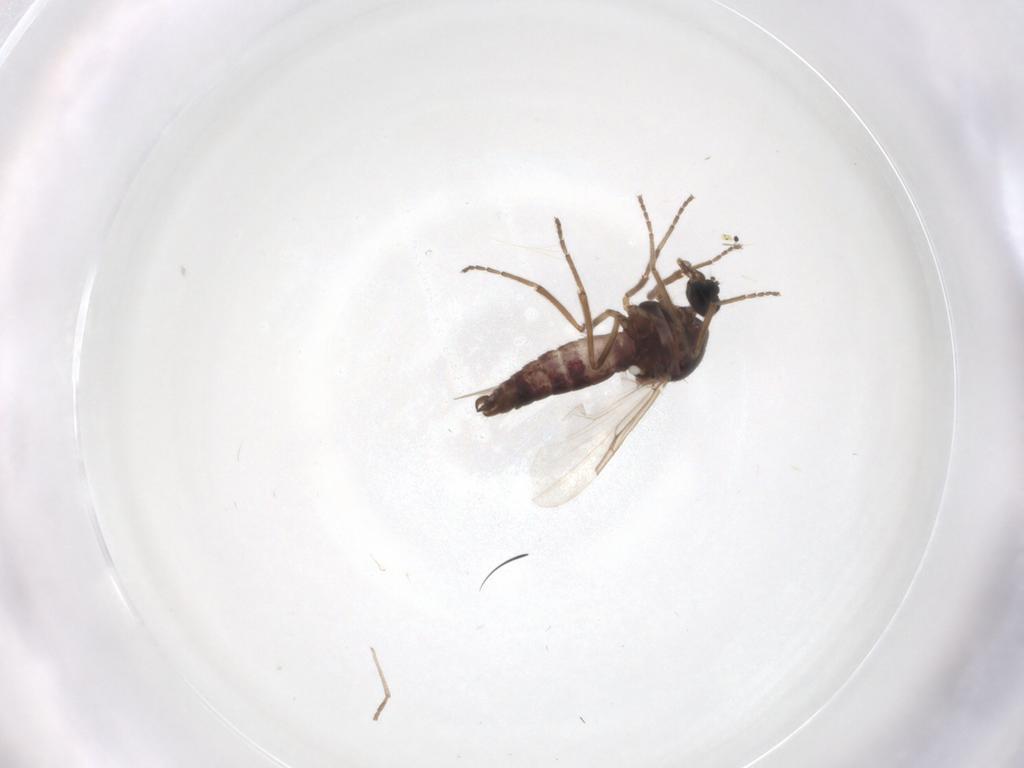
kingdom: Animalia
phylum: Arthropoda
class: Insecta
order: Diptera
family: Ceratopogonidae
